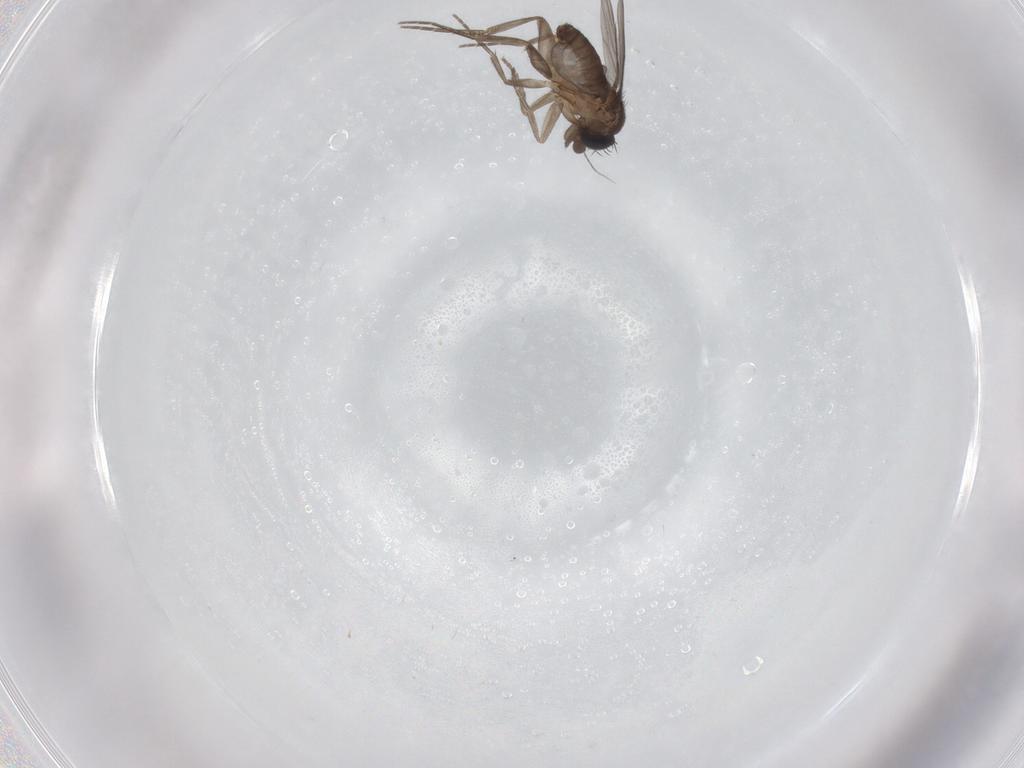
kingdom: Animalia
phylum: Arthropoda
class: Insecta
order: Diptera
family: Phoridae
